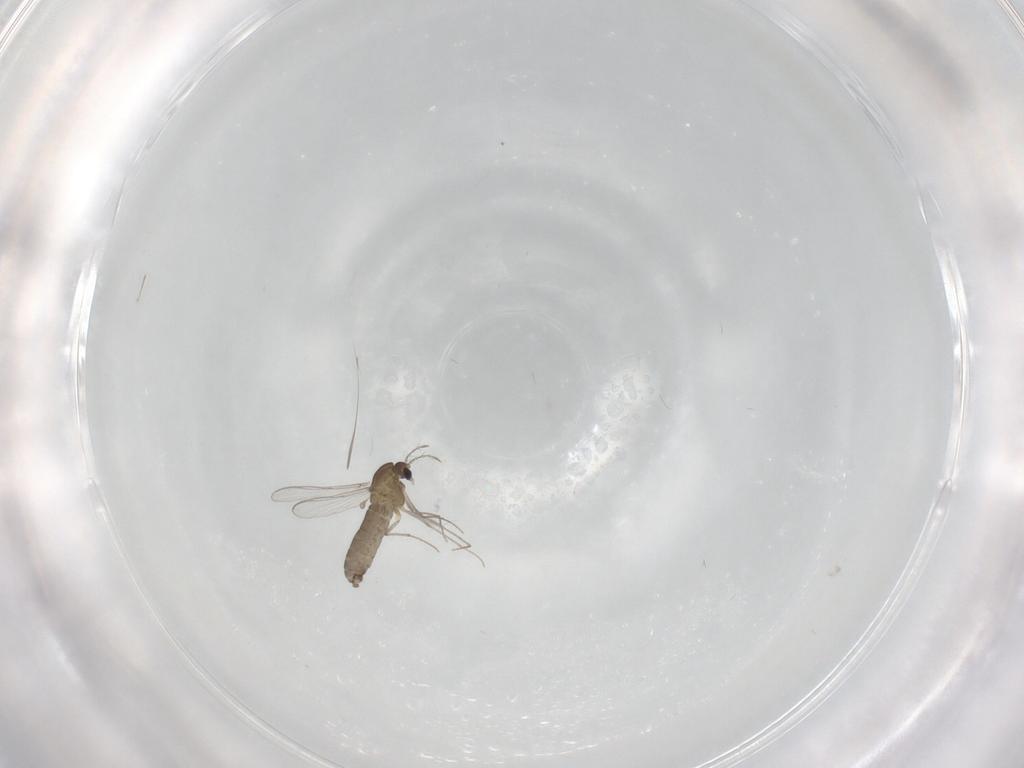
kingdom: Animalia
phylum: Arthropoda
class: Insecta
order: Diptera
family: Chironomidae
